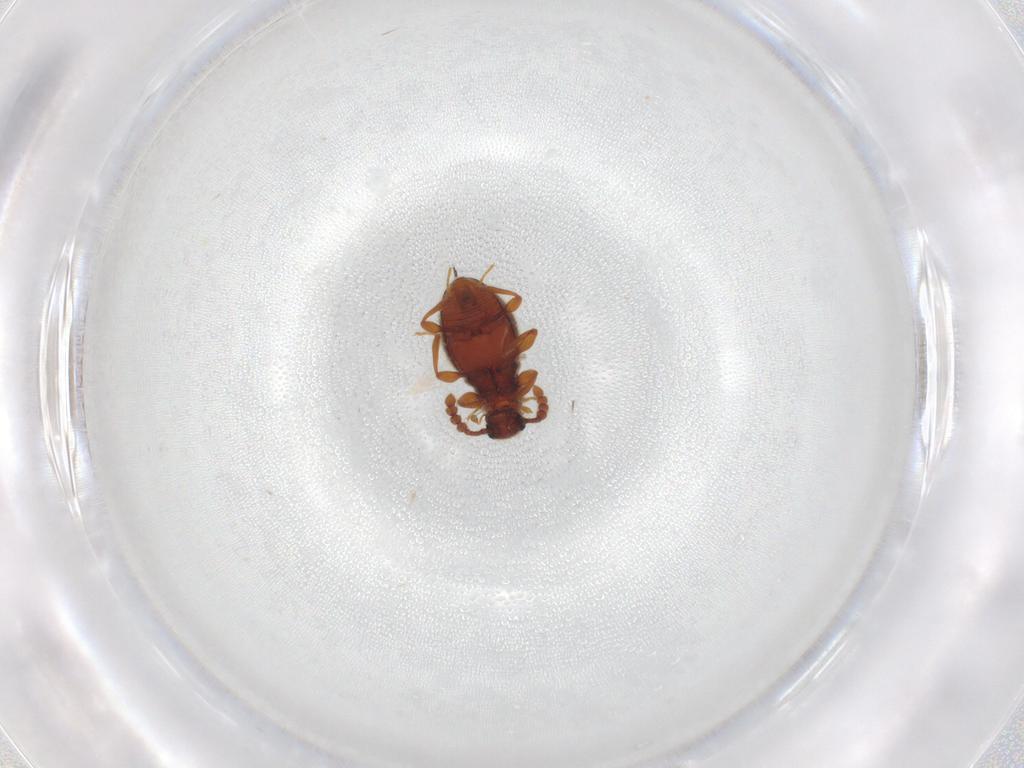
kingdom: Animalia
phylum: Arthropoda
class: Insecta
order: Coleoptera
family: Staphylinidae
